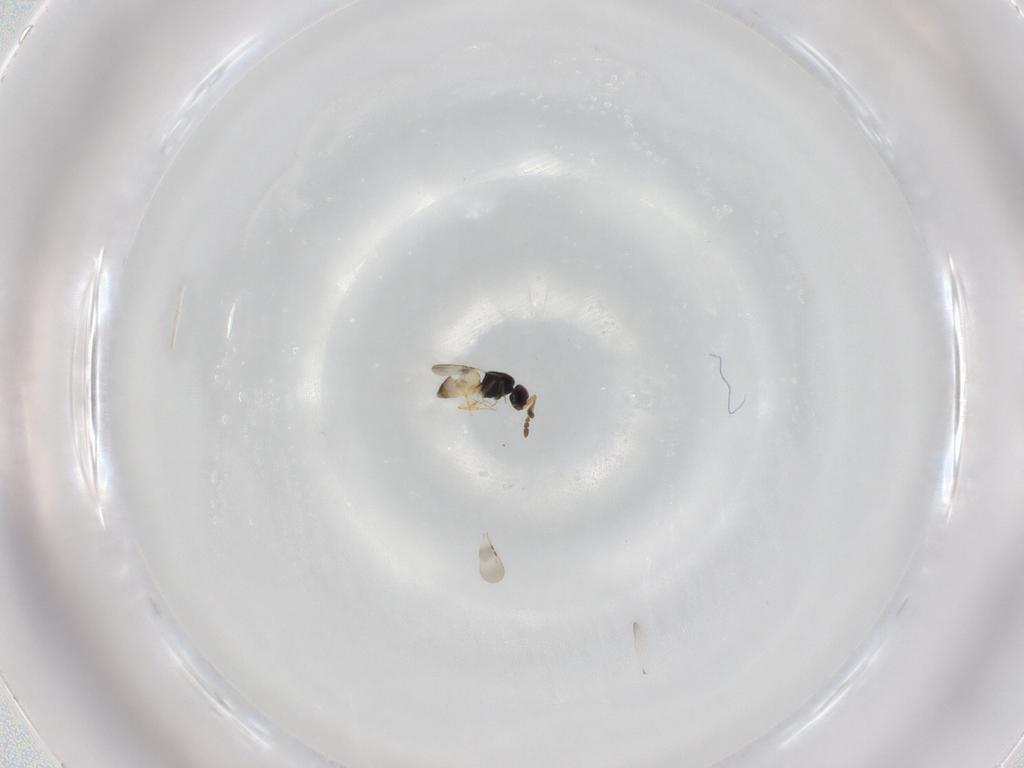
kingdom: Animalia
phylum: Arthropoda
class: Insecta
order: Hymenoptera
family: Ceraphronidae
